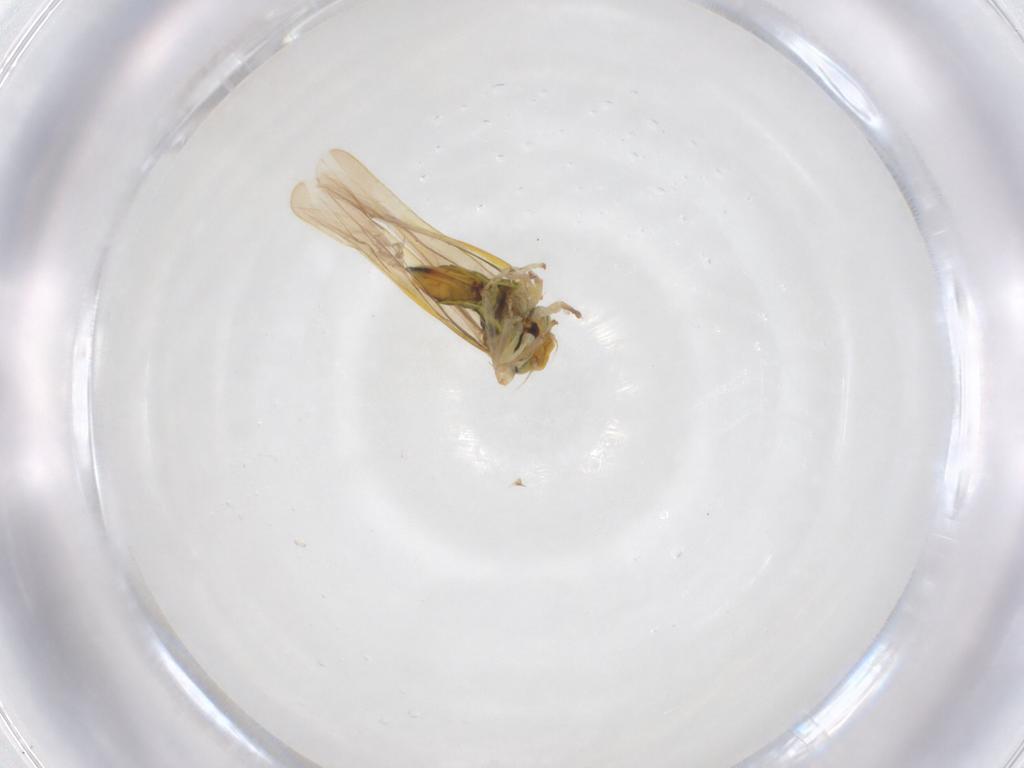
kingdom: Animalia
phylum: Arthropoda
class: Insecta
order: Hemiptera
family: Cicadellidae
